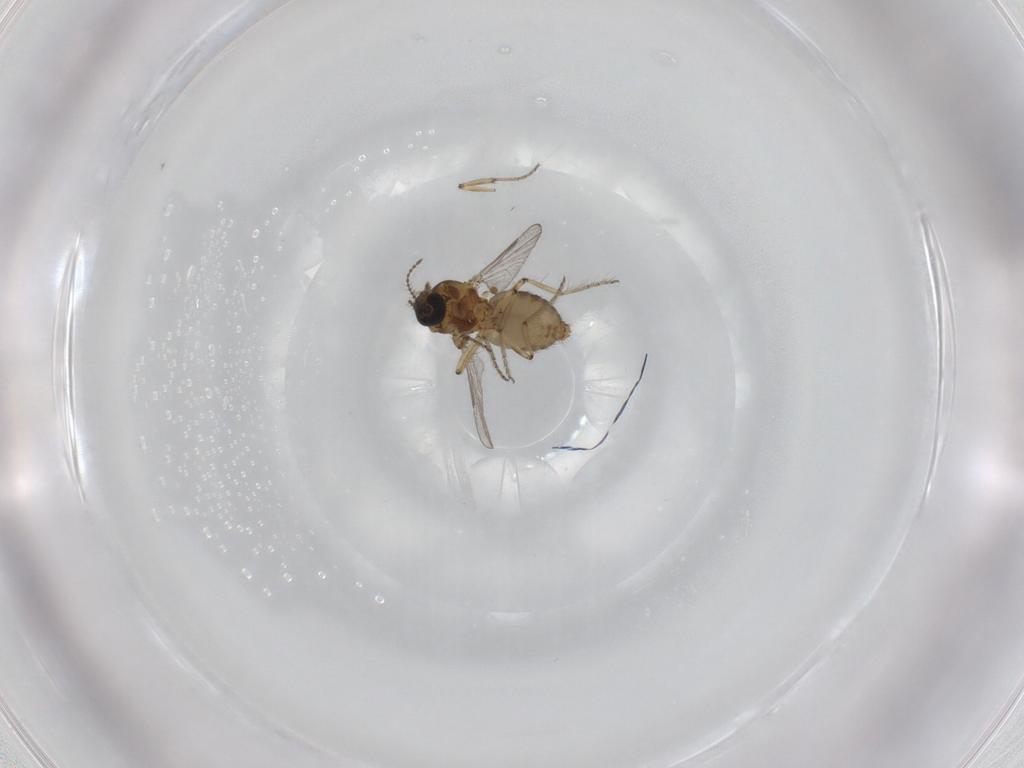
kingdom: Animalia
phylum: Arthropoda
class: Insecta
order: Diptera
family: Ceratopogonidae
